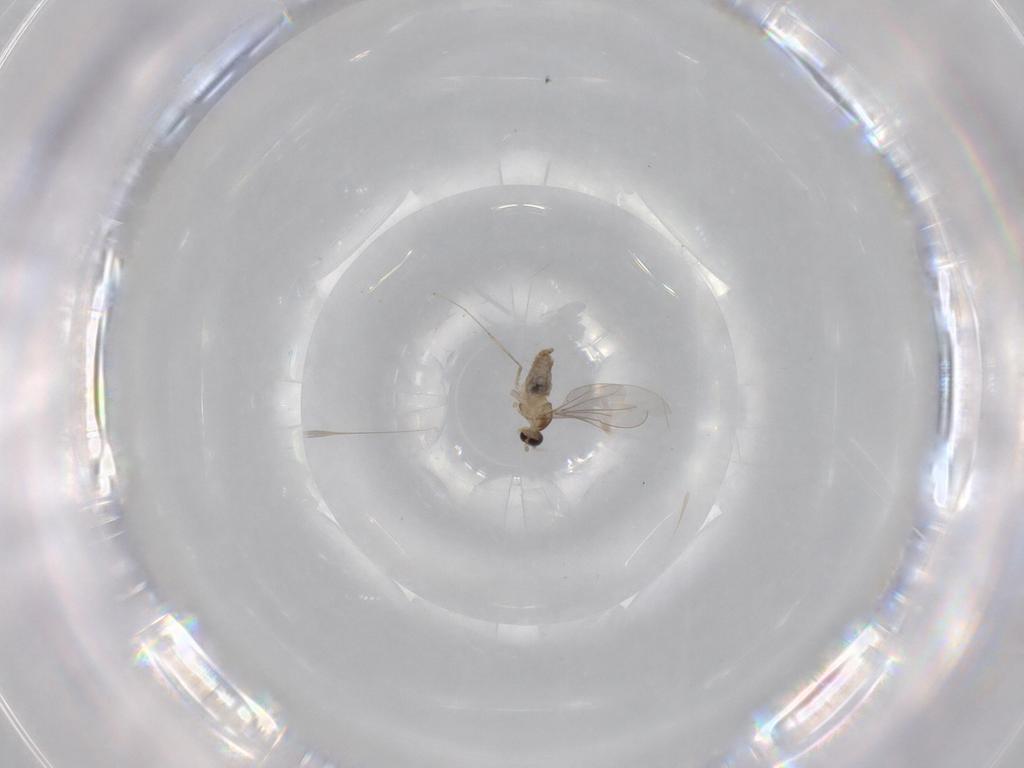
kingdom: Animalia
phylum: Arthropoda
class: Insecta
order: Diptera
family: Cecidomyiidae
